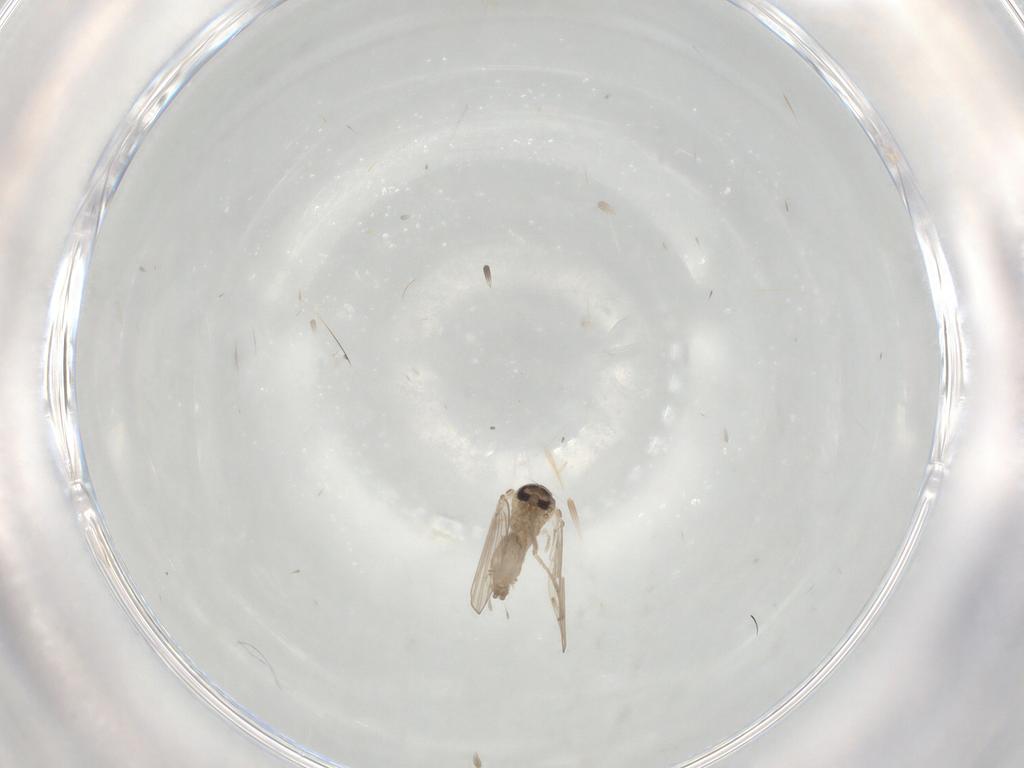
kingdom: Animalia
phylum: Arthropoda
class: Insecta
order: Diptera
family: Psychodidae
